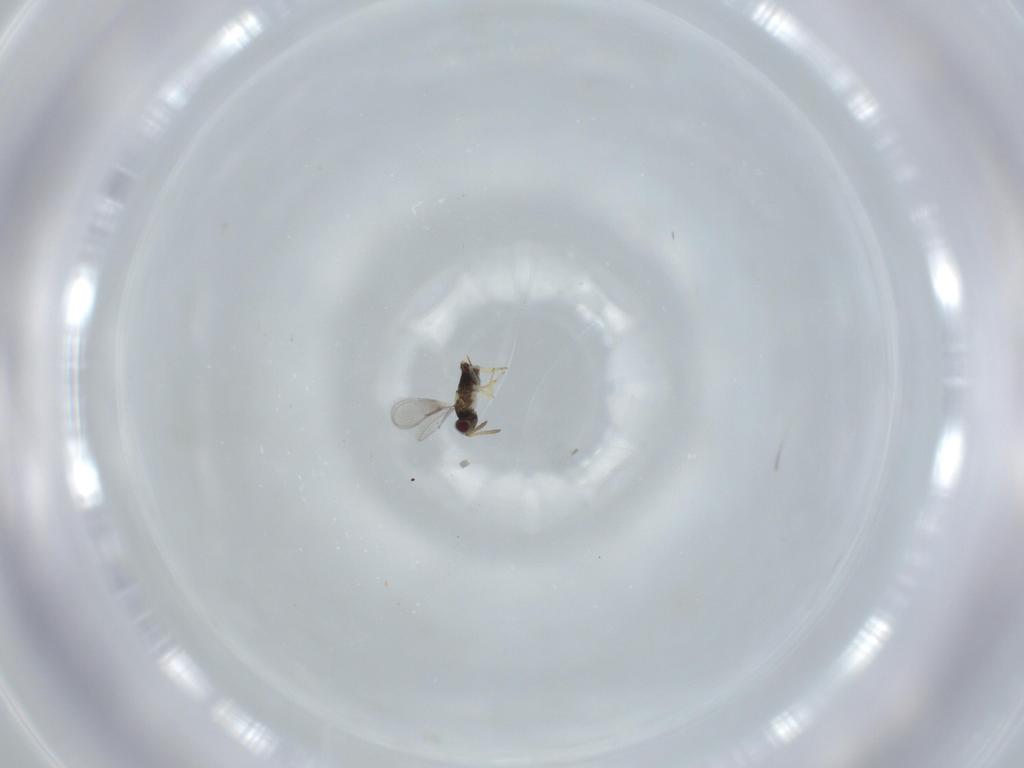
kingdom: Animalia
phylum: Arthropoda
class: Insecta
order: Hymenoptera
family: Aphelinidae
